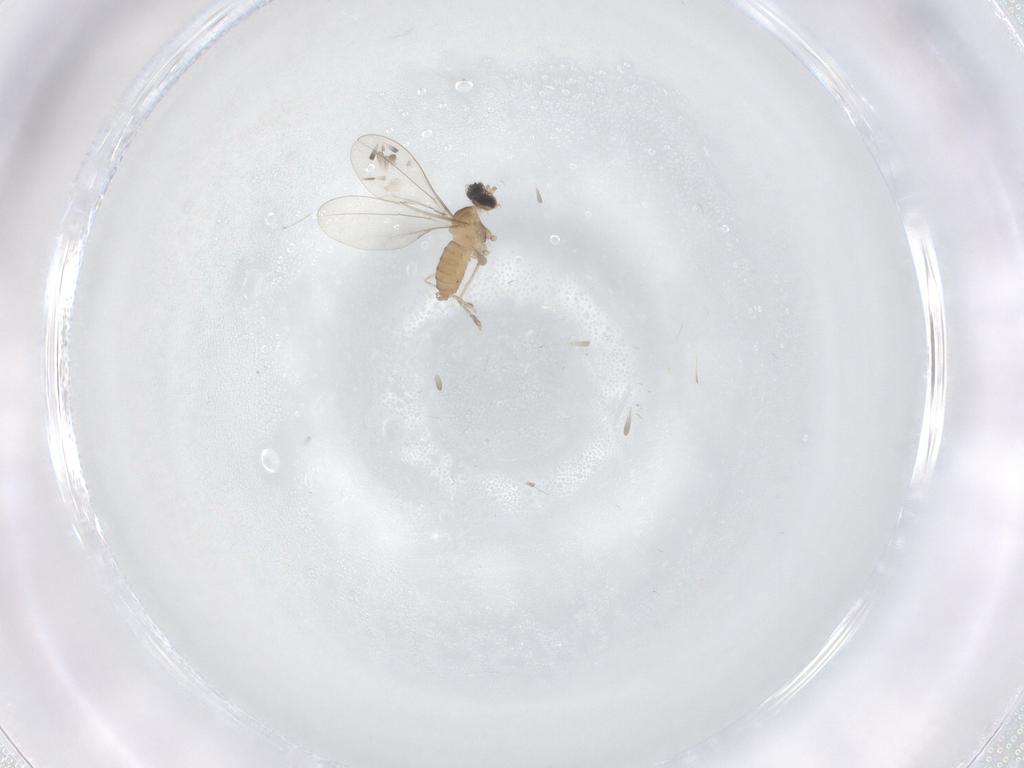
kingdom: Animalia
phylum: Arthropoda
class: Insecta
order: Diptera
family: Cecidomyiidae
